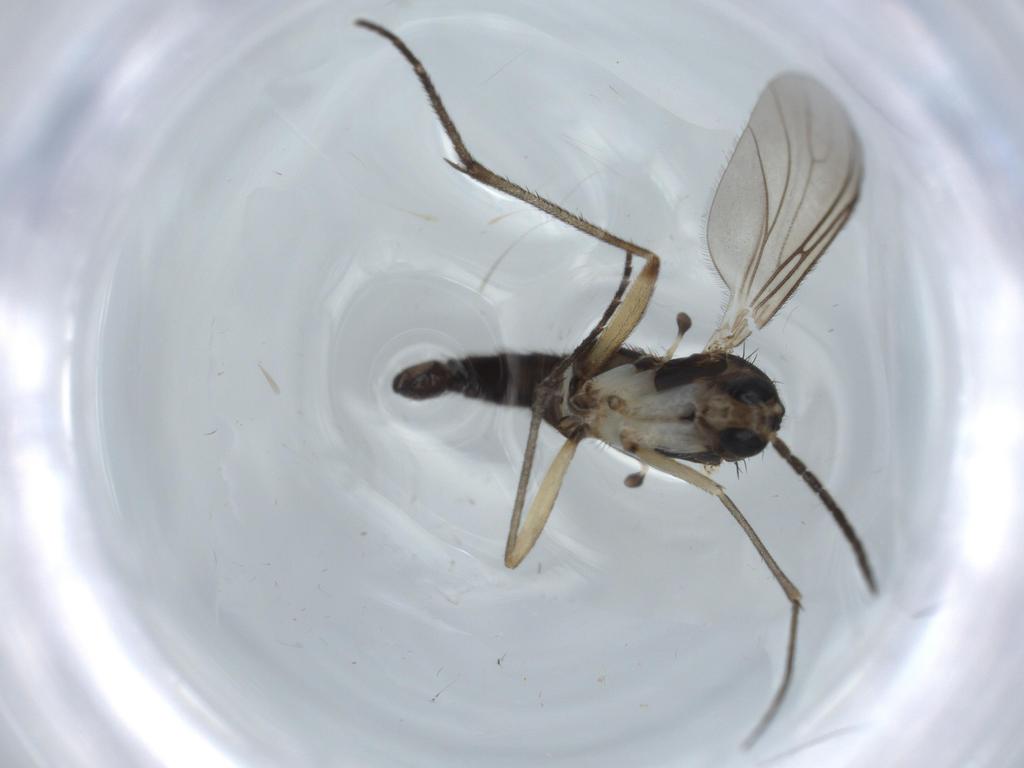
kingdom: Animalia
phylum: Arthropoda
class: Insecta
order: Diptera
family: Sciaridae
